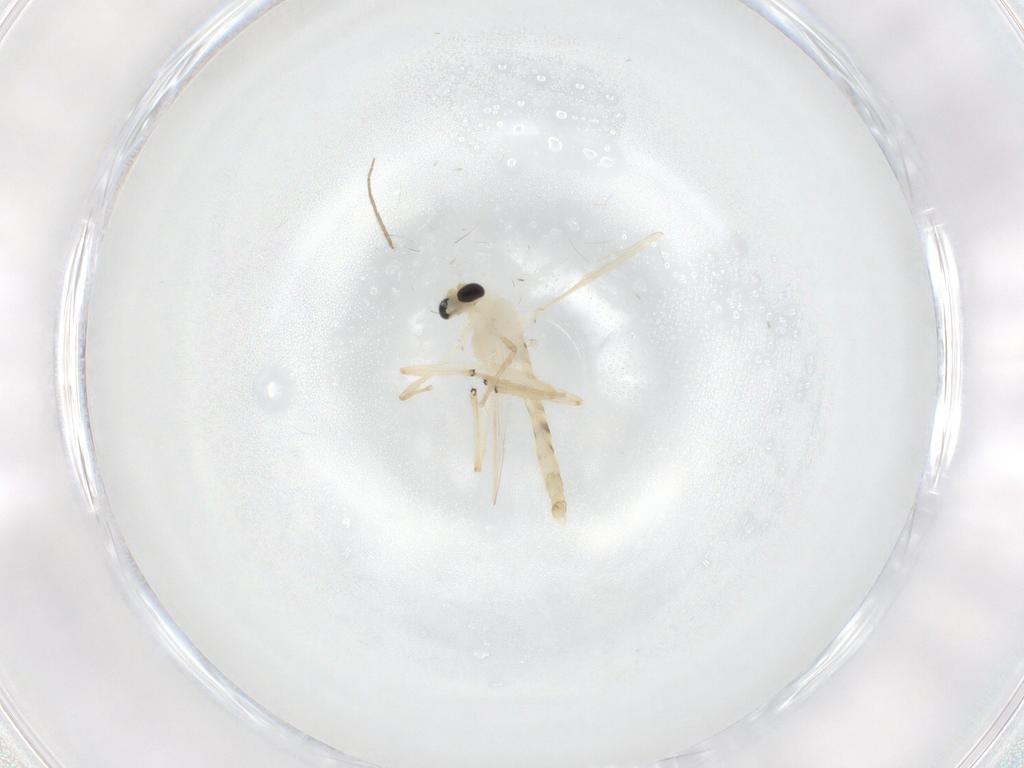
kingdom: Animalia
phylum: Arthropoda
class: Insecta
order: Diptera
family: Chironomidae
